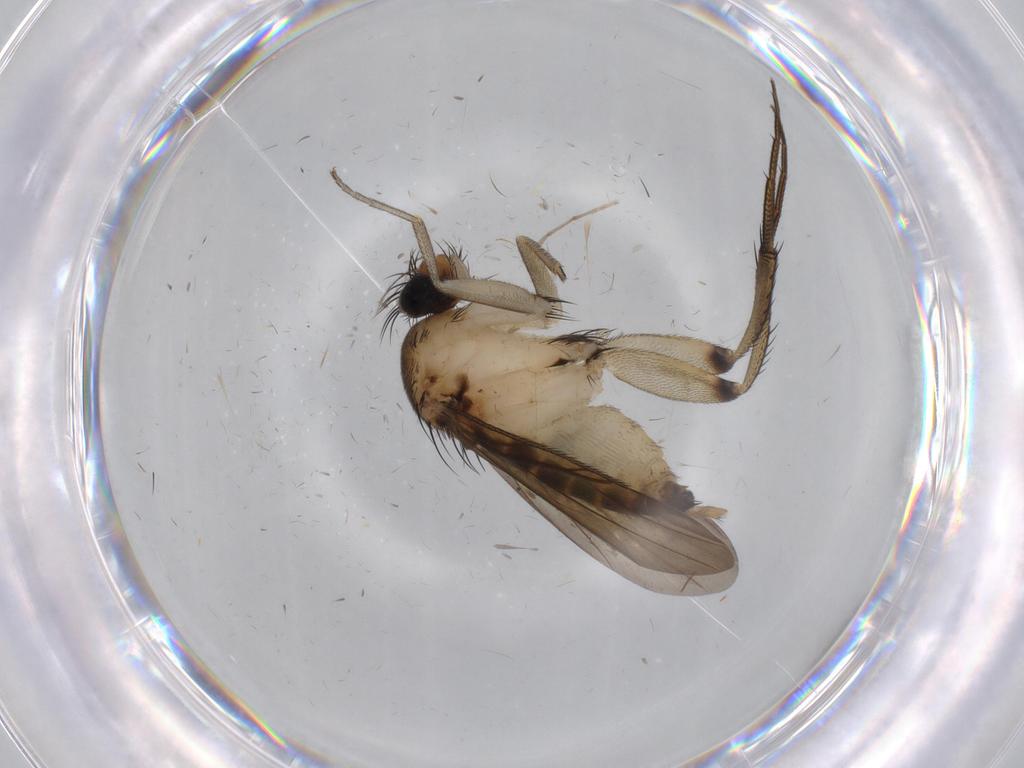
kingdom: Animalia
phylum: Arthropoda
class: Insecta
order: Diptera
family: Cecidomyiidae
